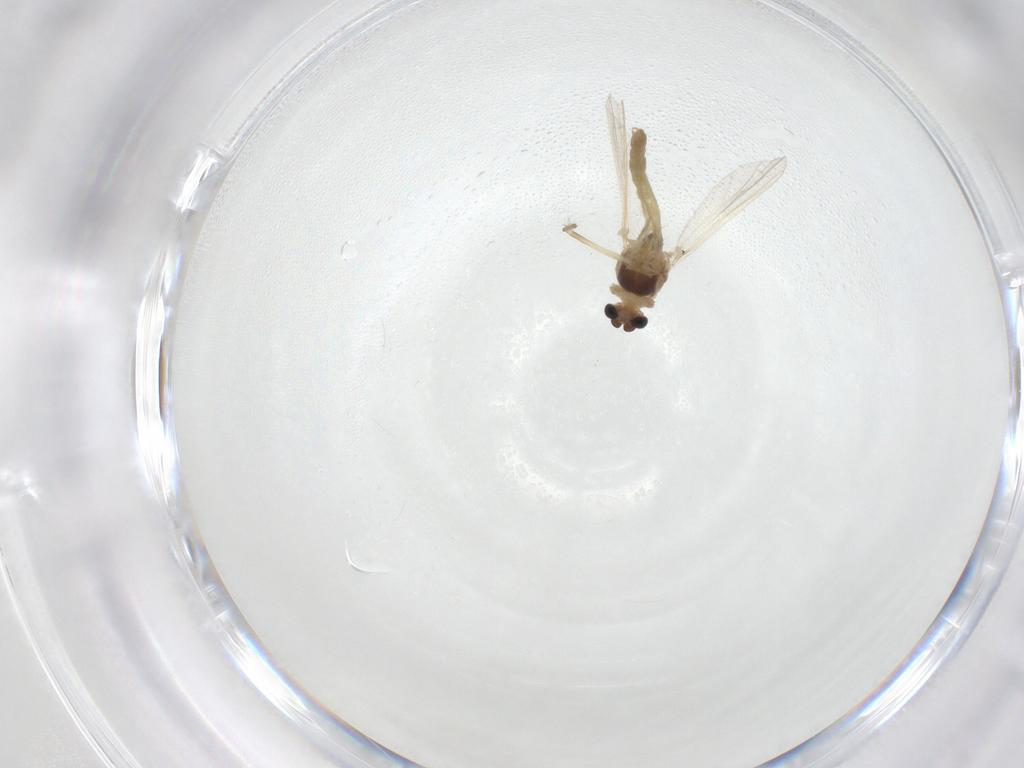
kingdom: Animalia
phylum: Arthropoda
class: Insecta
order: Diptera
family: Chironomidae
